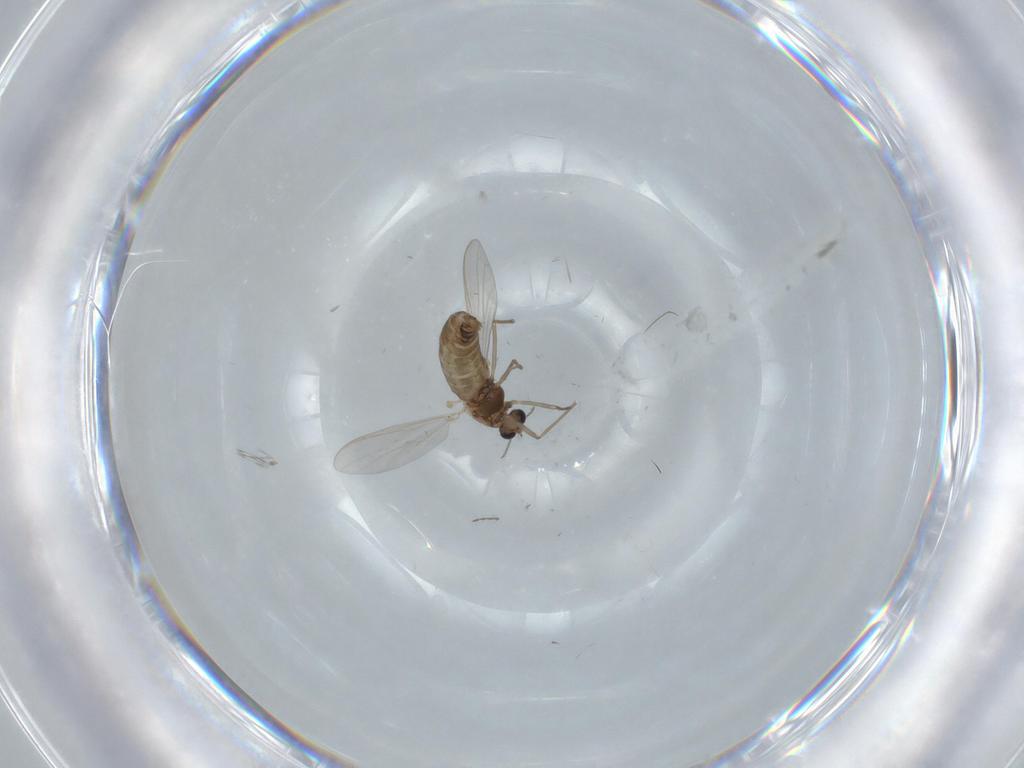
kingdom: Animalia
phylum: Arthropoda
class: Insecta
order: Diptera
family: Chironomidae
